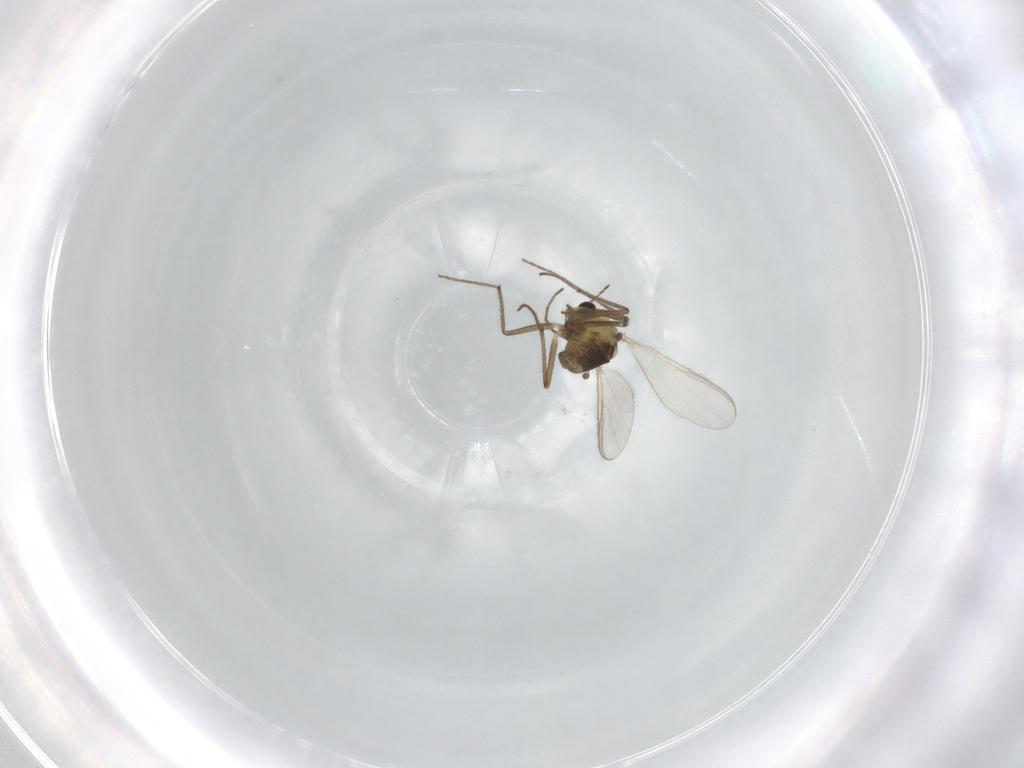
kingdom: Animalia
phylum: Arthropoda
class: Insecta
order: Diptera
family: Chironomidae
